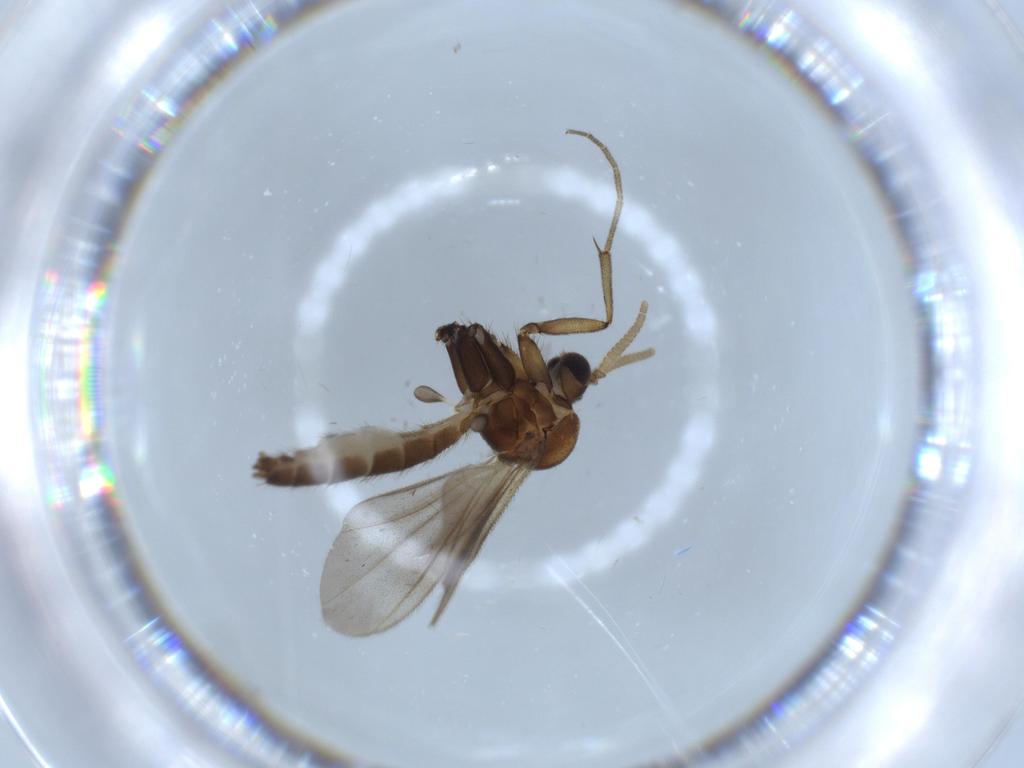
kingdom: Animalia
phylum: Arthropoda
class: Insecta
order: Diptera
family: Mycetophilidae
